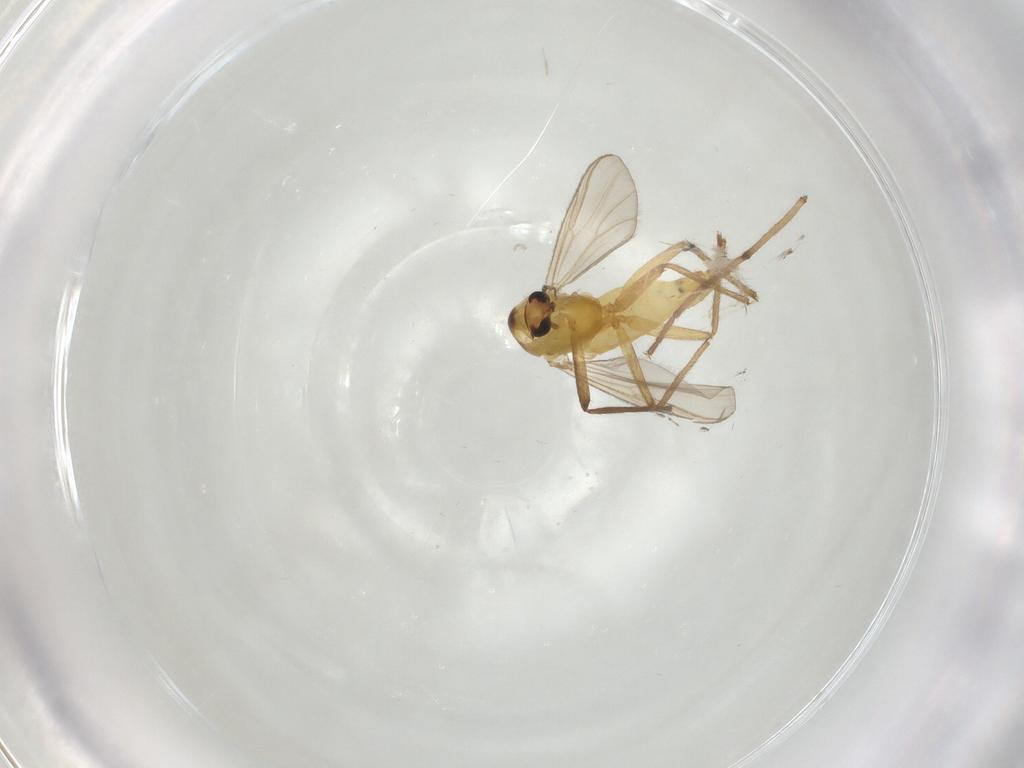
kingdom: Animalia
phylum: Arthropoda
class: Insecta
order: Diptera
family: Chironomidae
